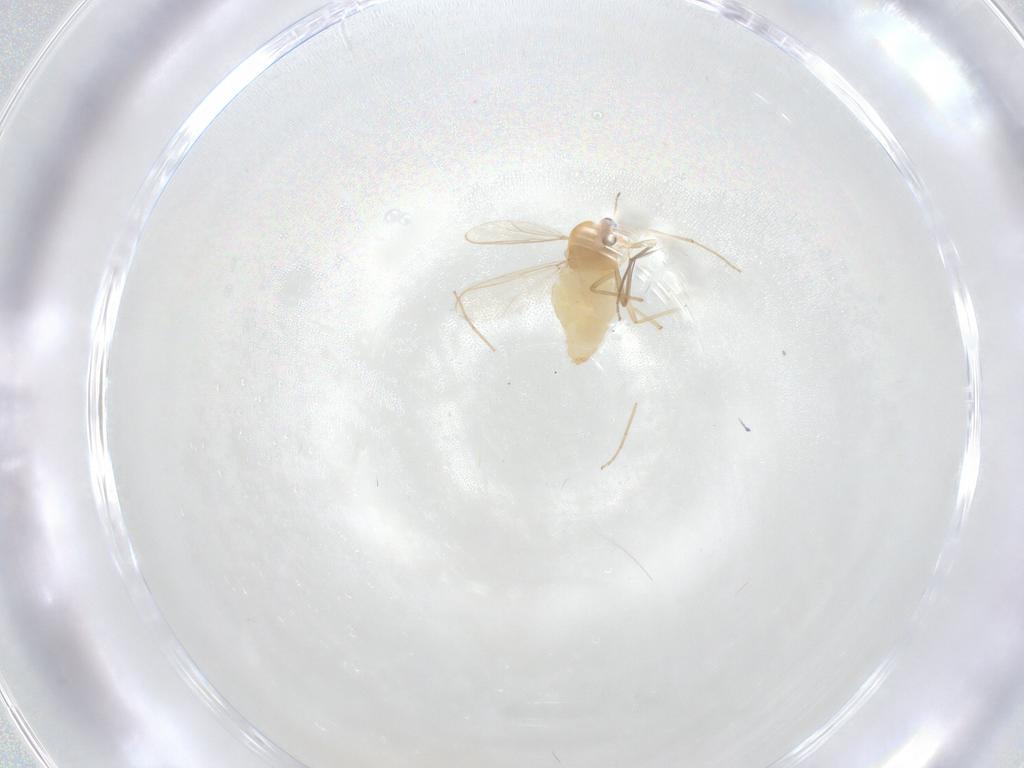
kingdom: Animalia
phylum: Arthropoda
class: Insecta
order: Diptera
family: Chironomidae
